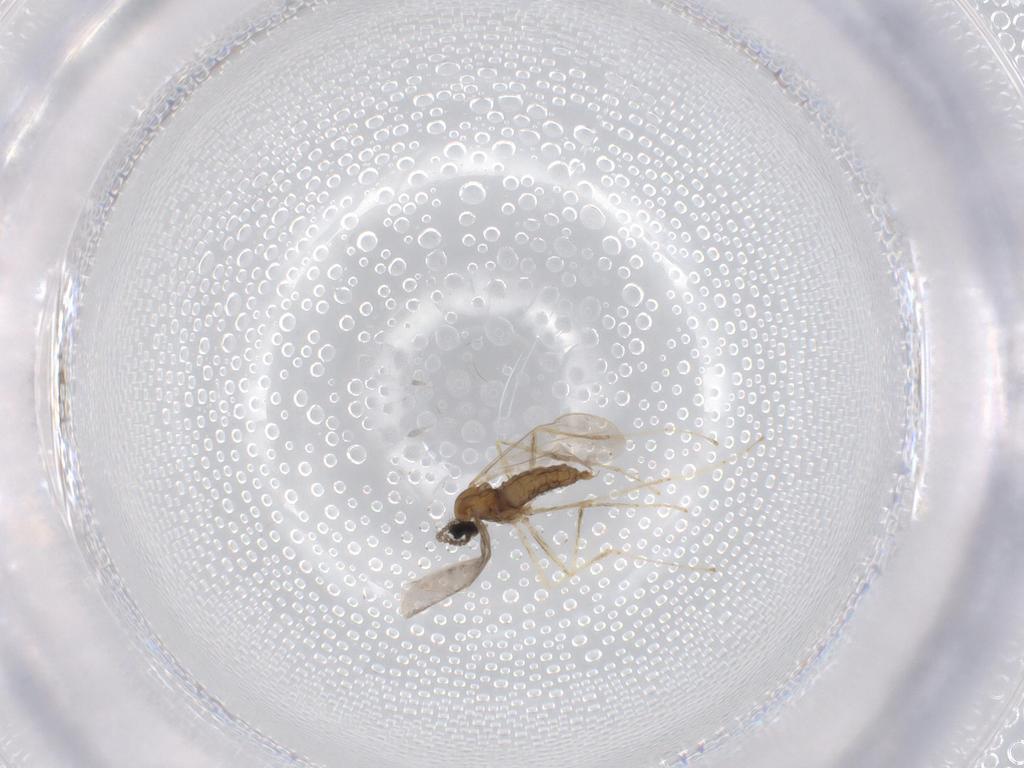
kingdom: Animalia
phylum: Arthropoda
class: Insecta
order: Diptera
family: Cecidomyiidae
